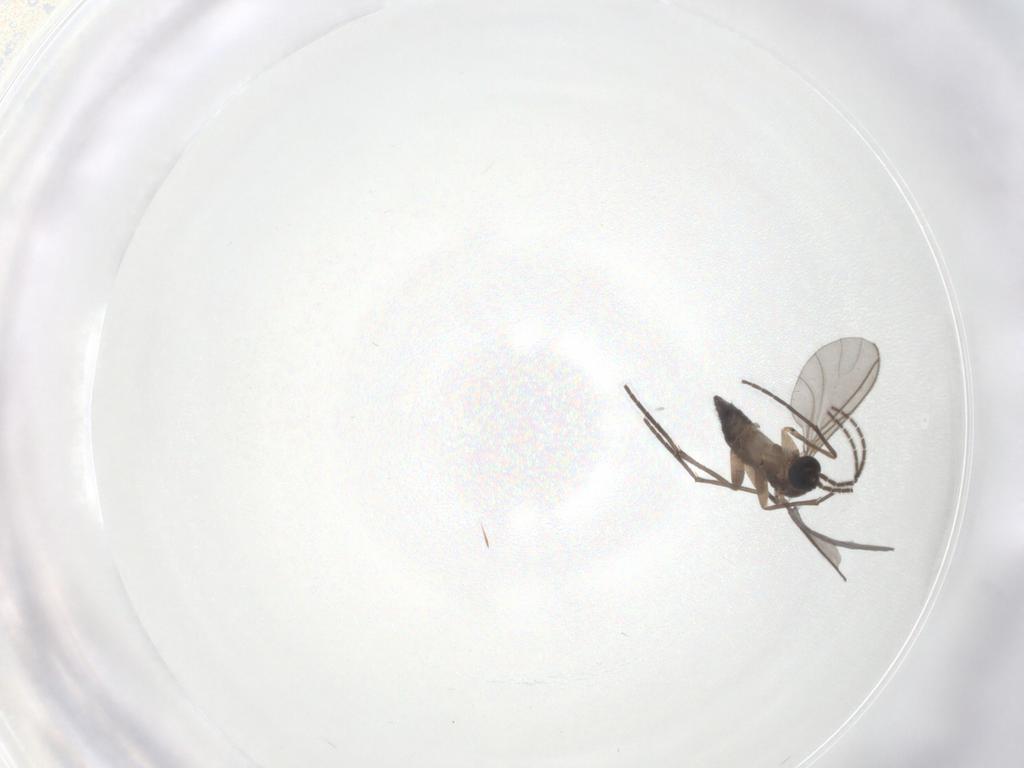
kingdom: Animalia
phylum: Arthropoda
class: Insecta
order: Diptera
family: Sciaridae
